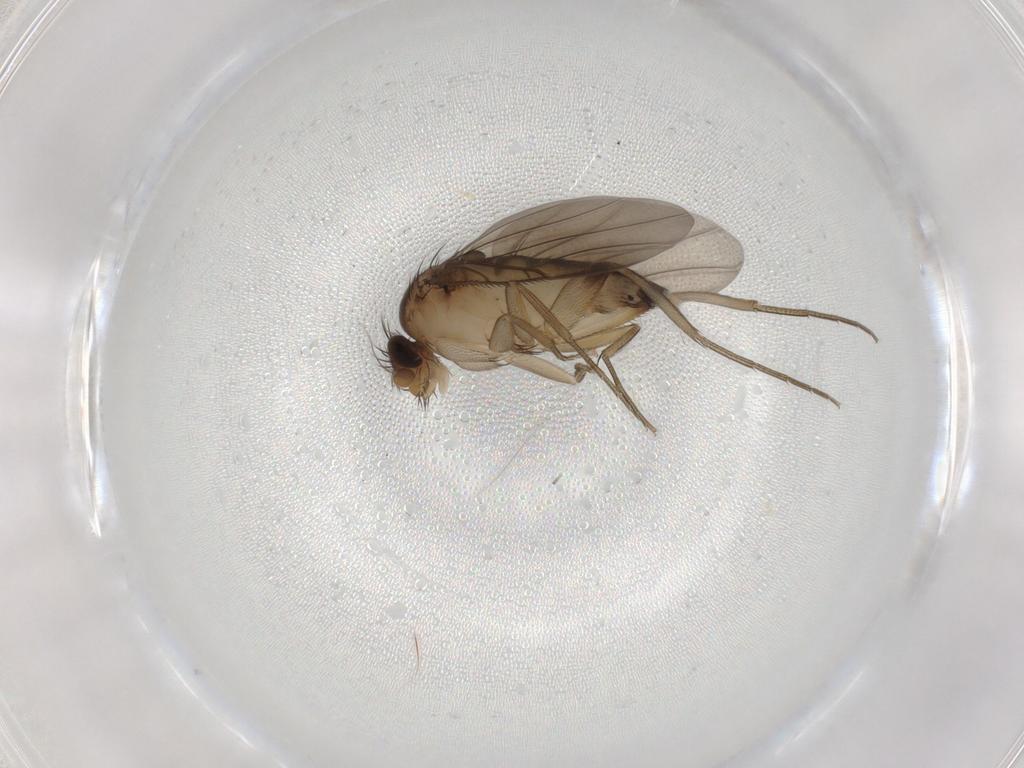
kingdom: Animalia
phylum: Arthropoda
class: Insecta
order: Diptera
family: Phoridae
